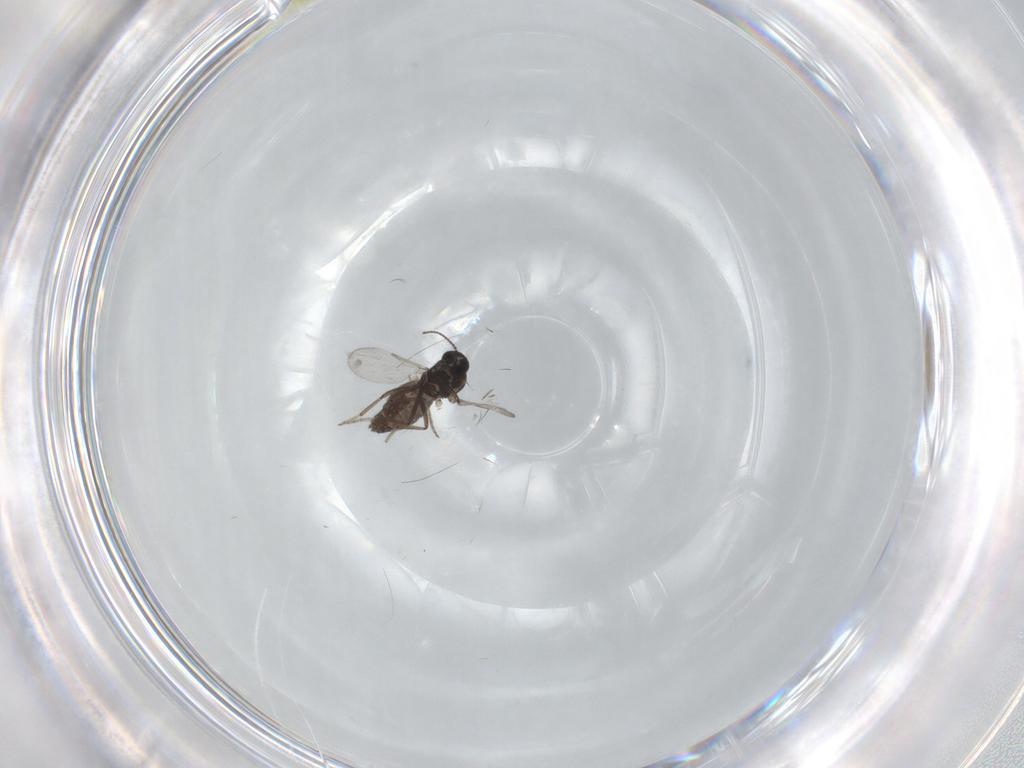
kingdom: Animalia
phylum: Arthropoda
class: Insecta
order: Diptera
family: Ceratopogonidae
